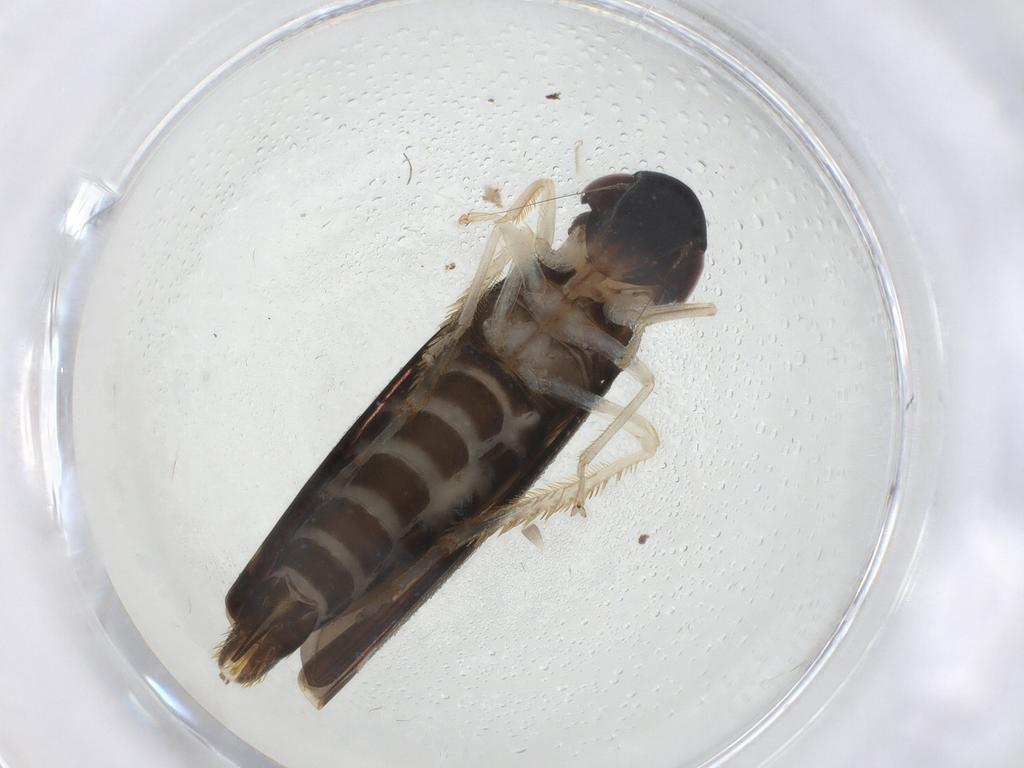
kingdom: Animalia
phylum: Arthropoda
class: Insecta
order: Hemiptera
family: Cicadellidae
